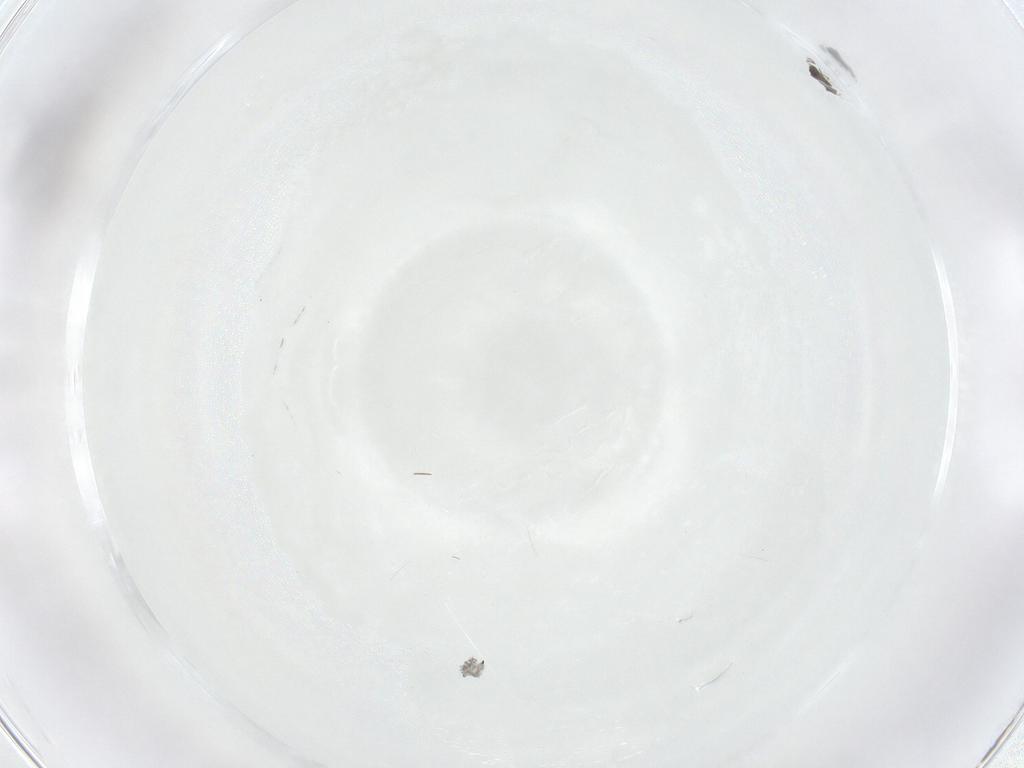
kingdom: Animalia
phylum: Arthropoda
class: Insecta
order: Diptera
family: Chironomidae
